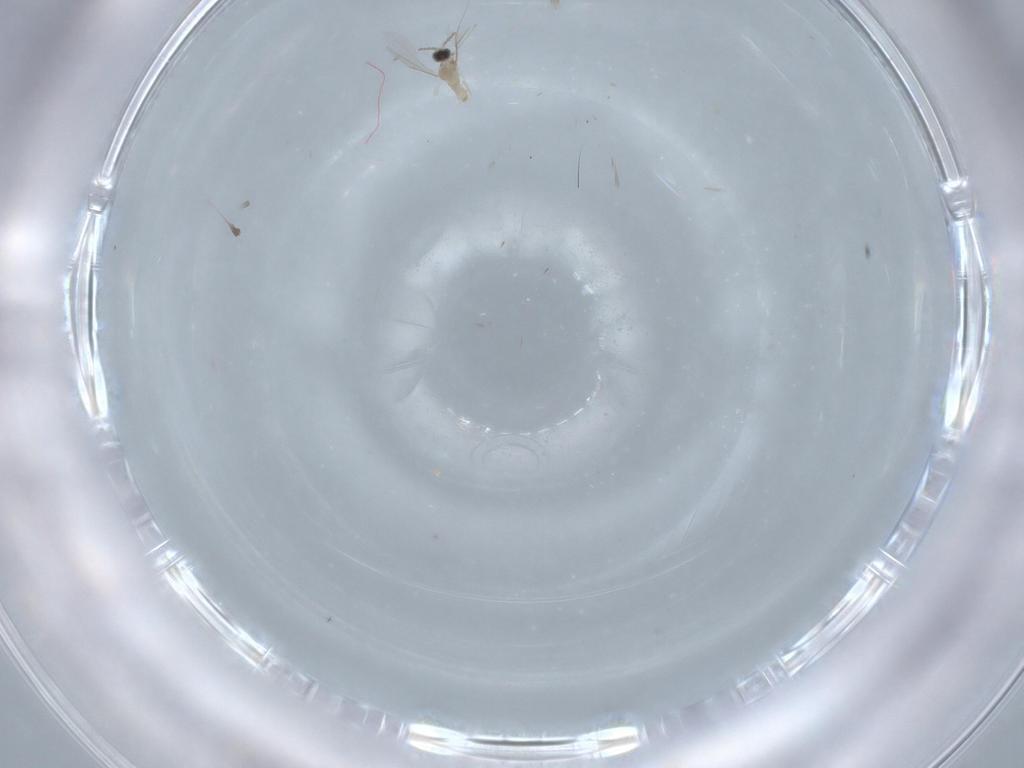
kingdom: Animalia
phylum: Arthropoda
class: Insecta
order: Diptera
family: Cecidomyiidae
